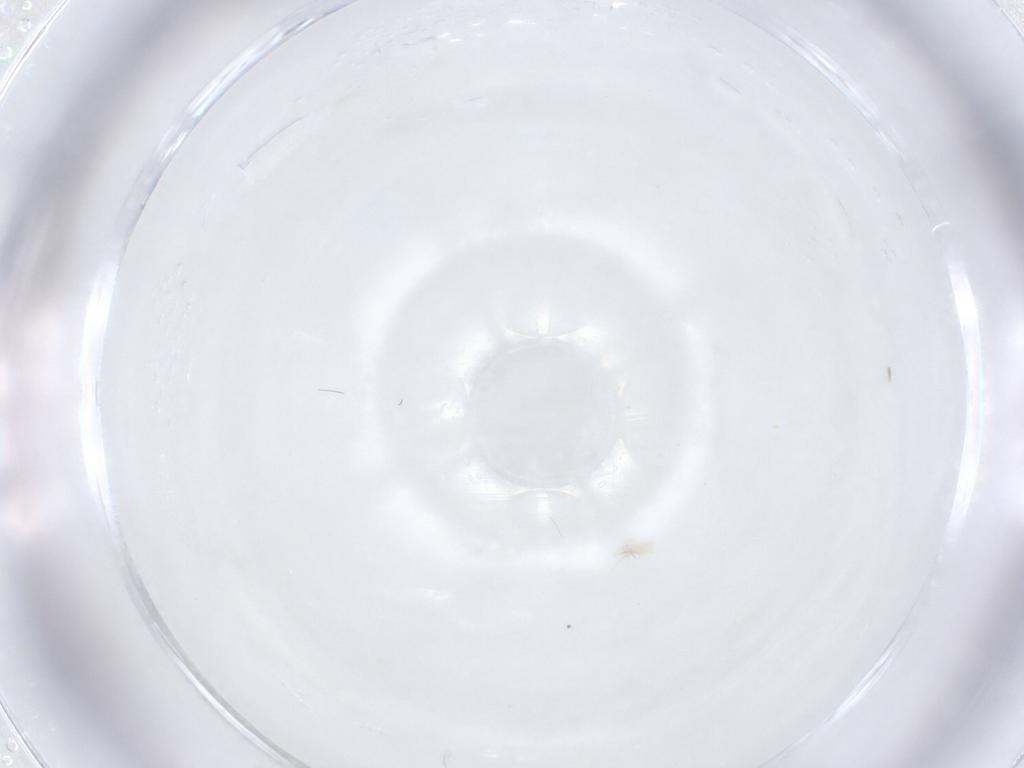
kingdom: Animalia
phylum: Arthropoda
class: Arachnida
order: Trombidiformes
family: Anystidae
